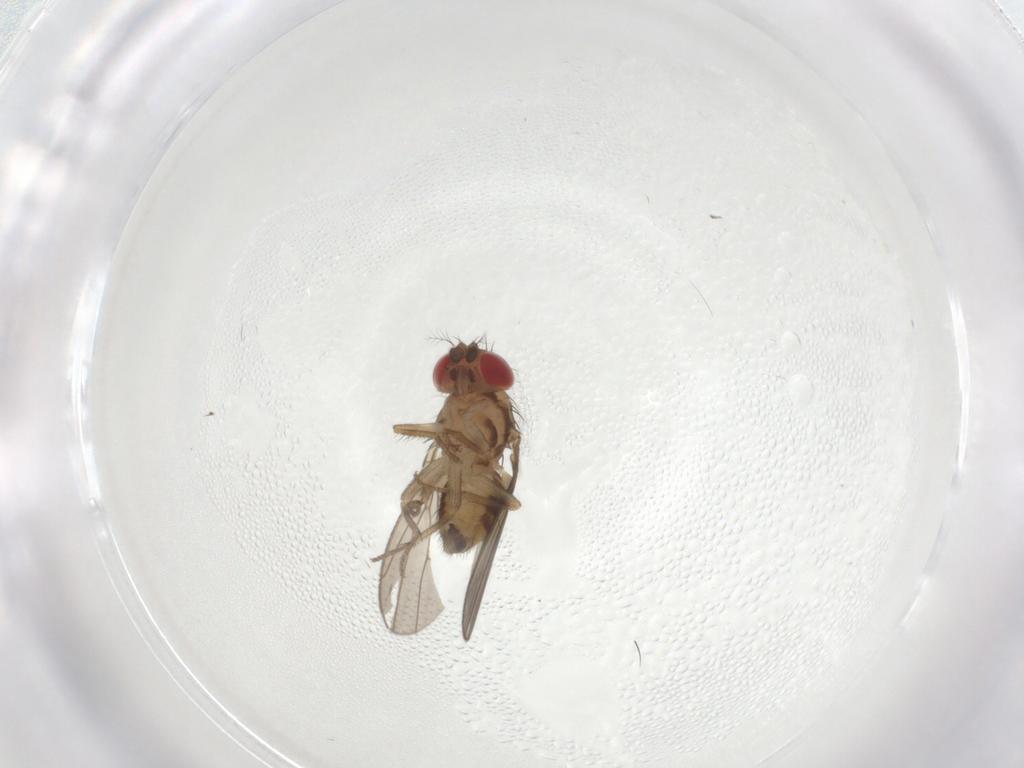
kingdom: Animalia
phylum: Arthropoda
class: Insecta
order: Diptera
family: Drosophilidae
